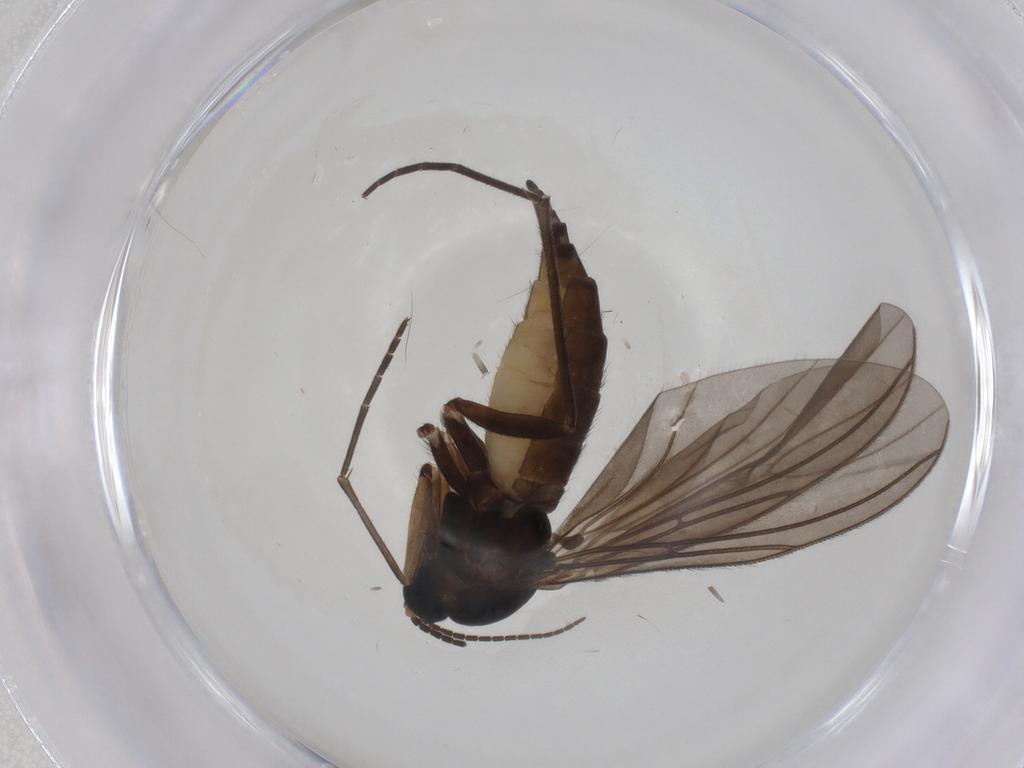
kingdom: Animalia
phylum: Arthropoda
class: Insecta
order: Diptera
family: Sciaridae
